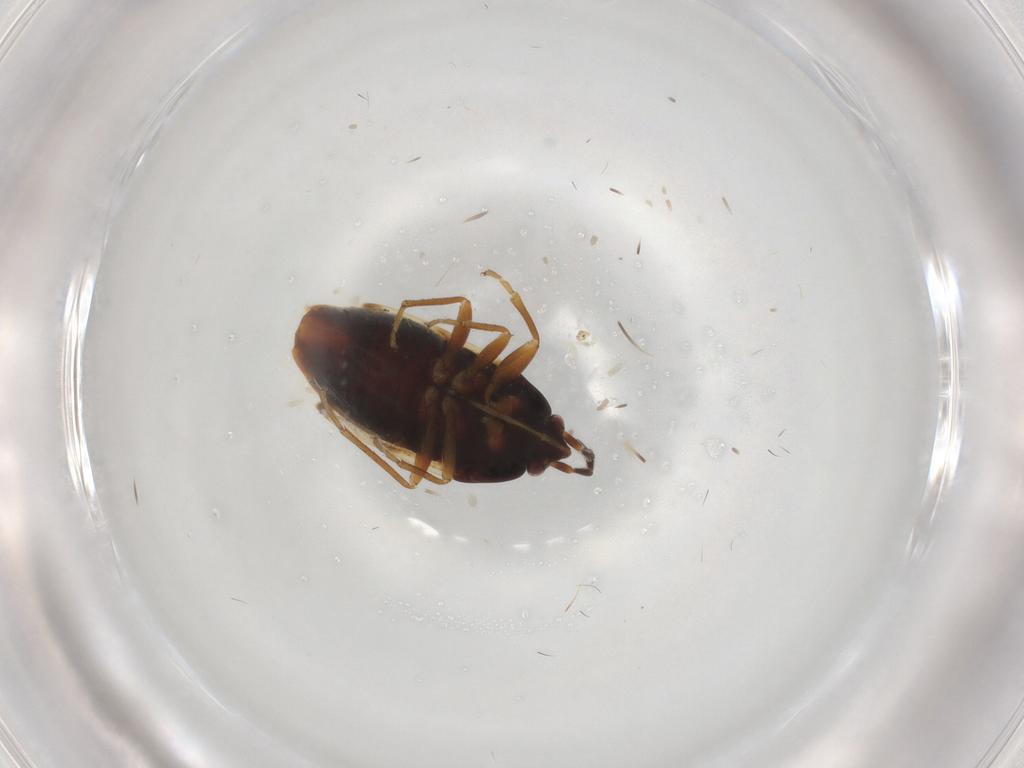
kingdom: Animalia
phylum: Arthropoda
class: Insecta
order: Hemiptera
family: Rhyparochromidae
